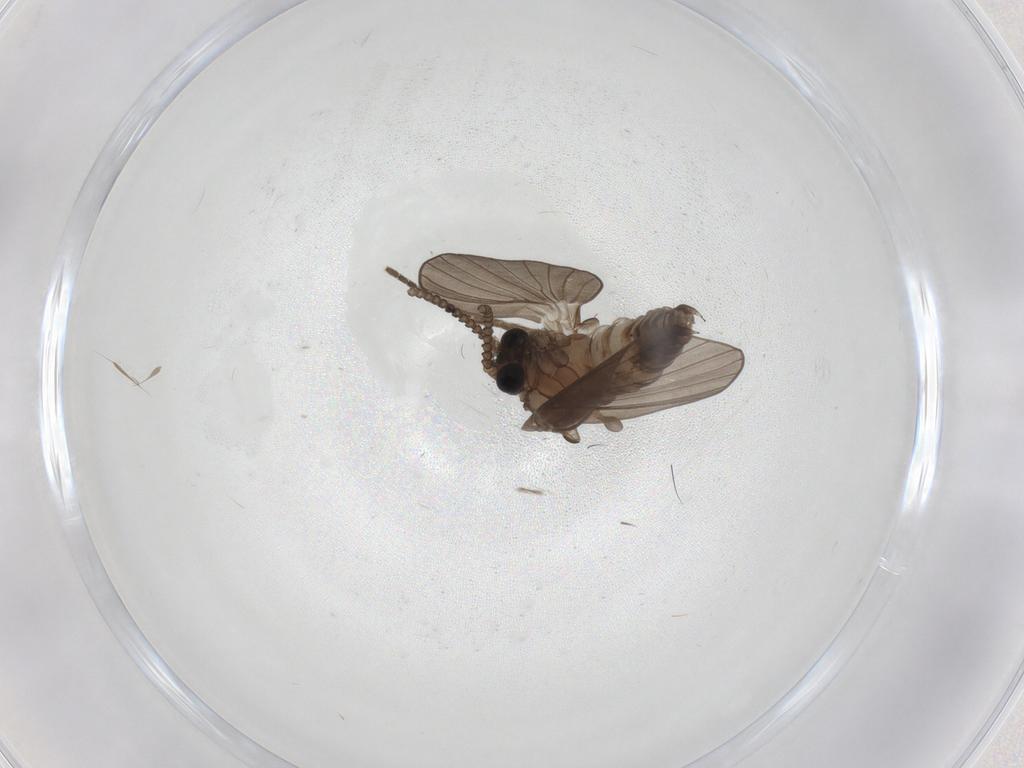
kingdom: Animalia
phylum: Arthropoda
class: Insecta
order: Diptera
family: Psychodidae
